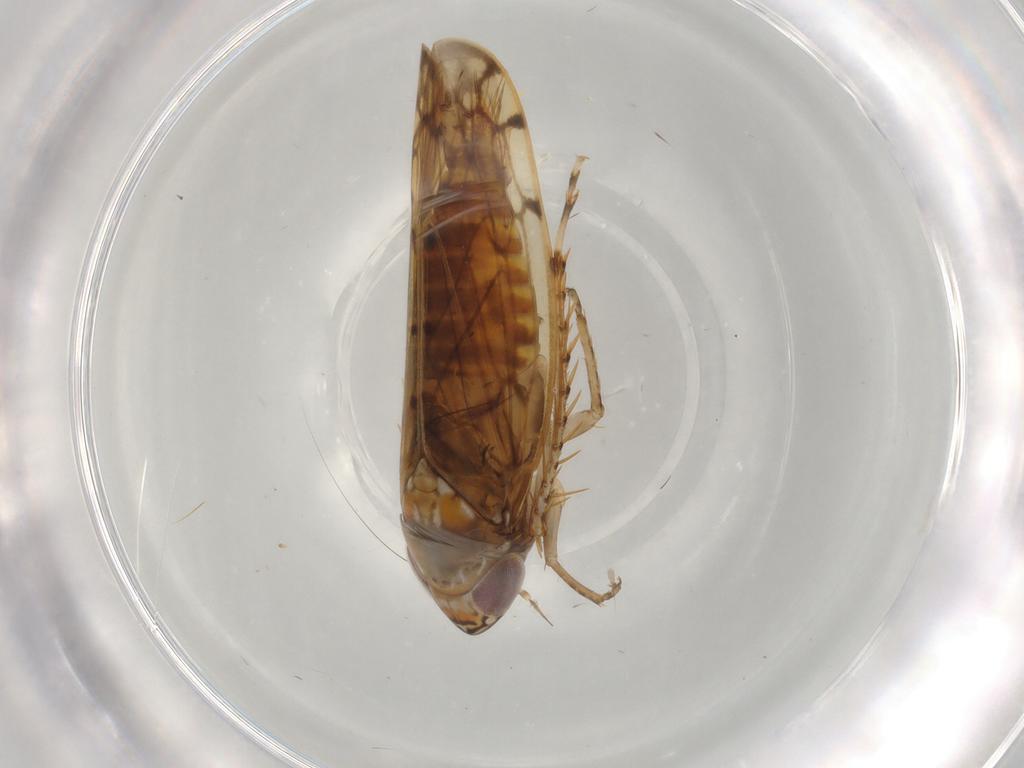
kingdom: Animalia
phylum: Arthropoda
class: Insecta
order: Hemiptera
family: Cicadellidae
